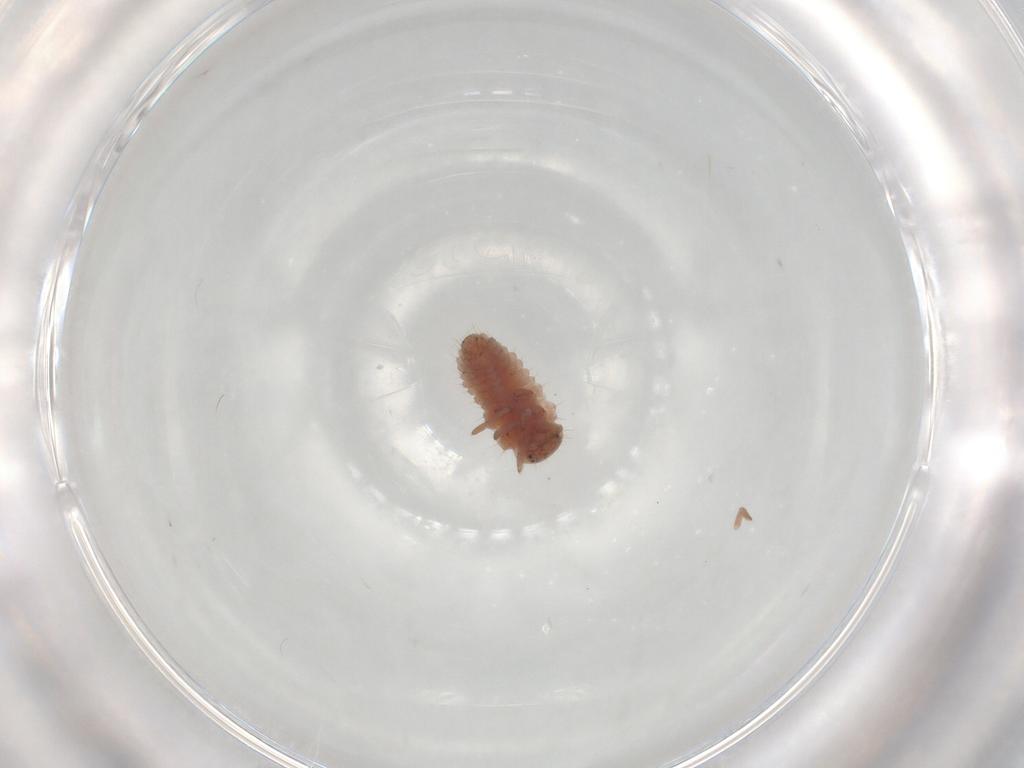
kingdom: Animalia
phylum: Arthropoda
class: Insecta
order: Coleoptera
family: Coccinellidae
